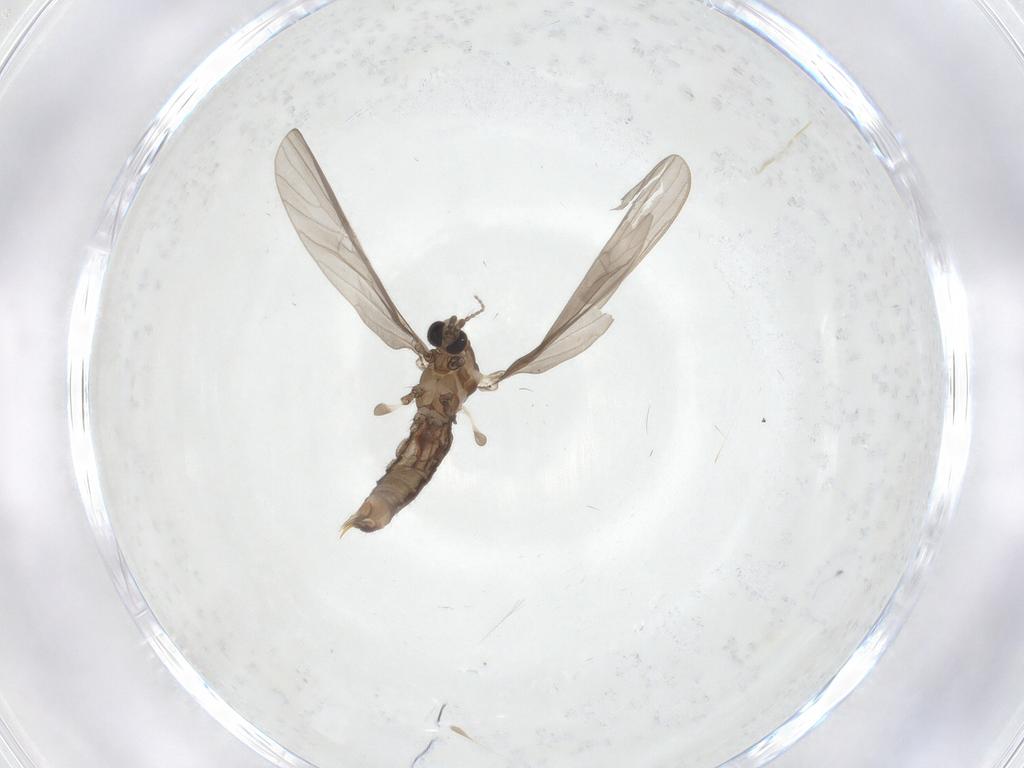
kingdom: Animalia
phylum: Arthropoda
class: Insecta
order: Diptera
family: Limoniidae
